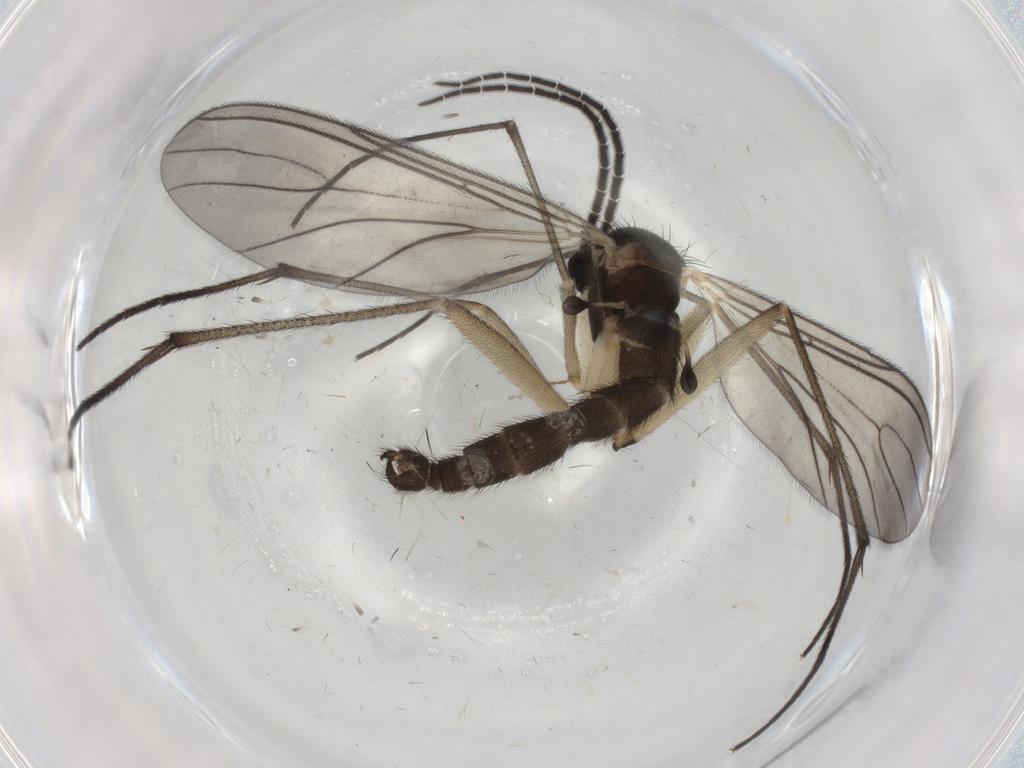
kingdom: Animalia
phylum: Arthropoda
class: Insecta
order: Diptera
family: Sciaridae
